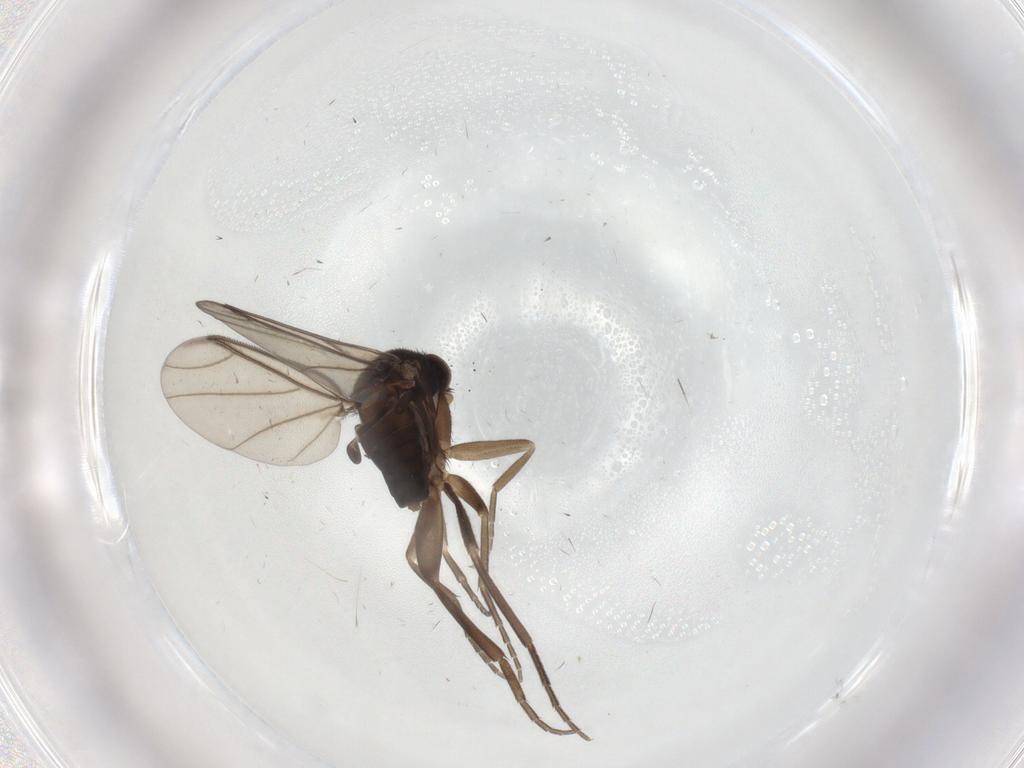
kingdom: Animalia
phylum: Arthropoda
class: Insecta
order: Diptera
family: Phoridae
